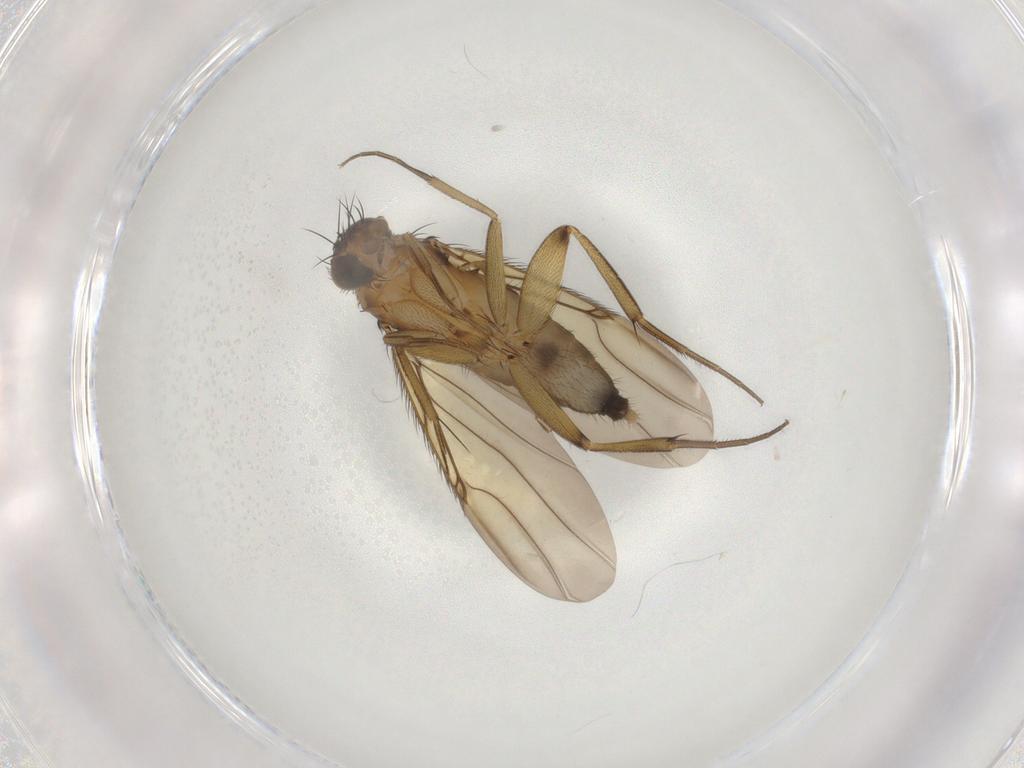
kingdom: Animalia
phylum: Arthropoda
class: Insecta
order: Diptera
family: Phoridae
